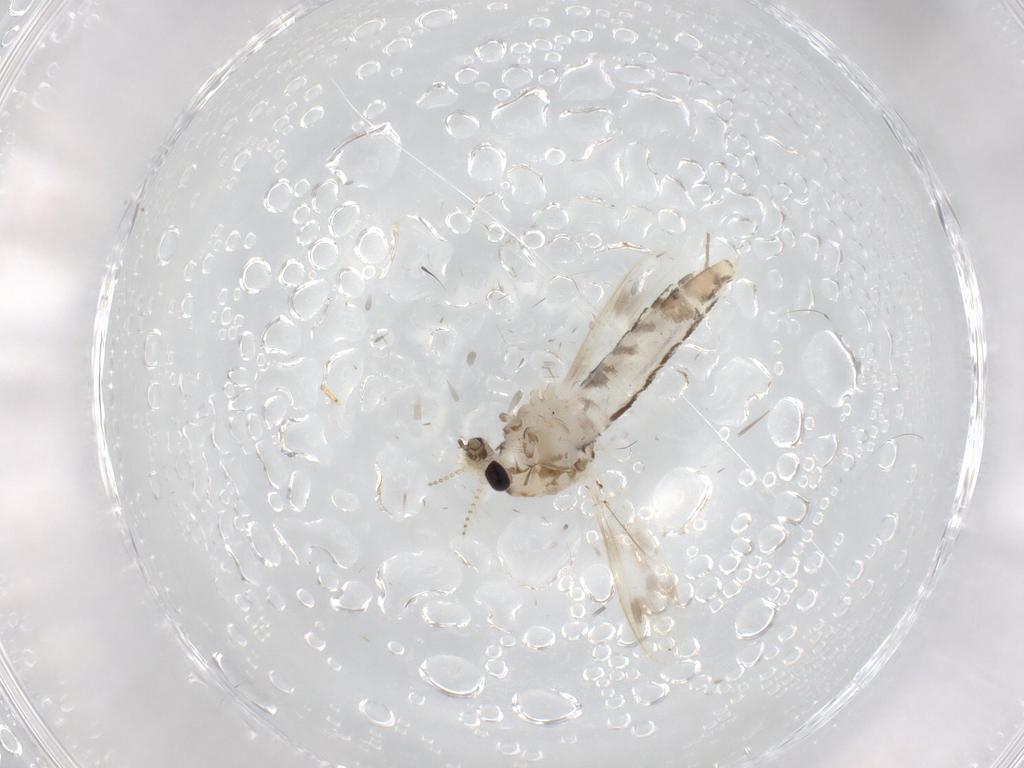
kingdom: Animalia
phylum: Arthropoda
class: Insecta
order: Diptera
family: Corethrellidae
